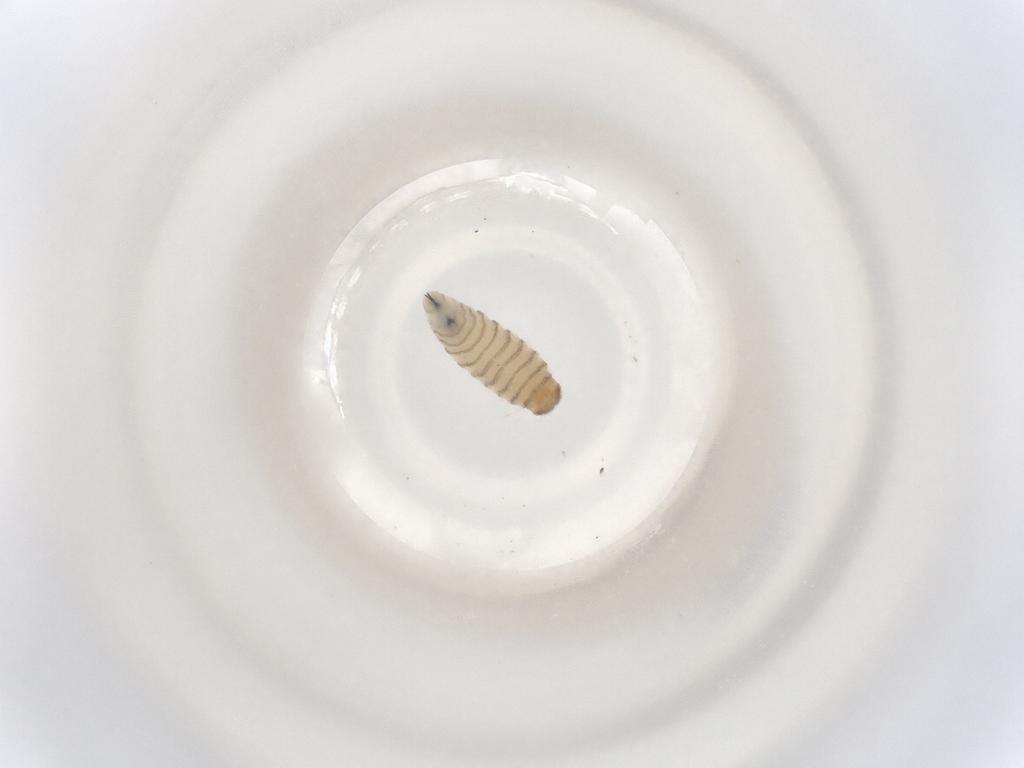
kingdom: Animalia
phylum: Arthropoda
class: Insecta
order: Diptera
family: Sarcophagidae
